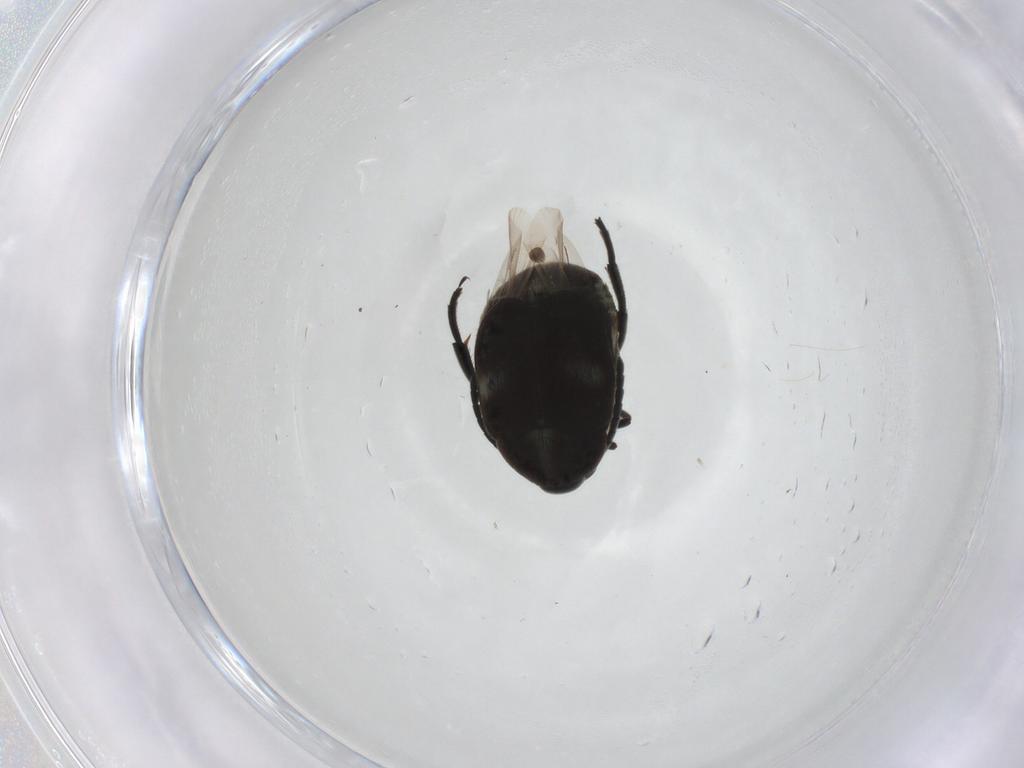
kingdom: Animalia
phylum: Arthropoda
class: Insecta
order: Coleoptera
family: Chrysomelidae
